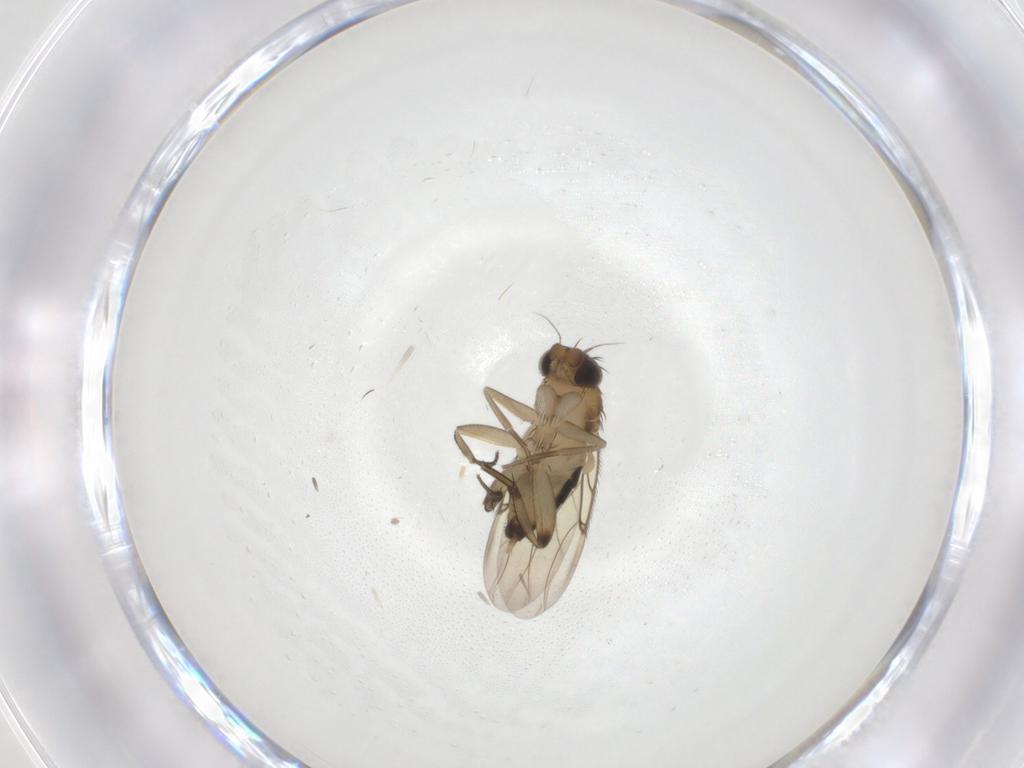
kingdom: Animalia
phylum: Arthropoda
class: Insecta
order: Diptera
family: Phoridae
